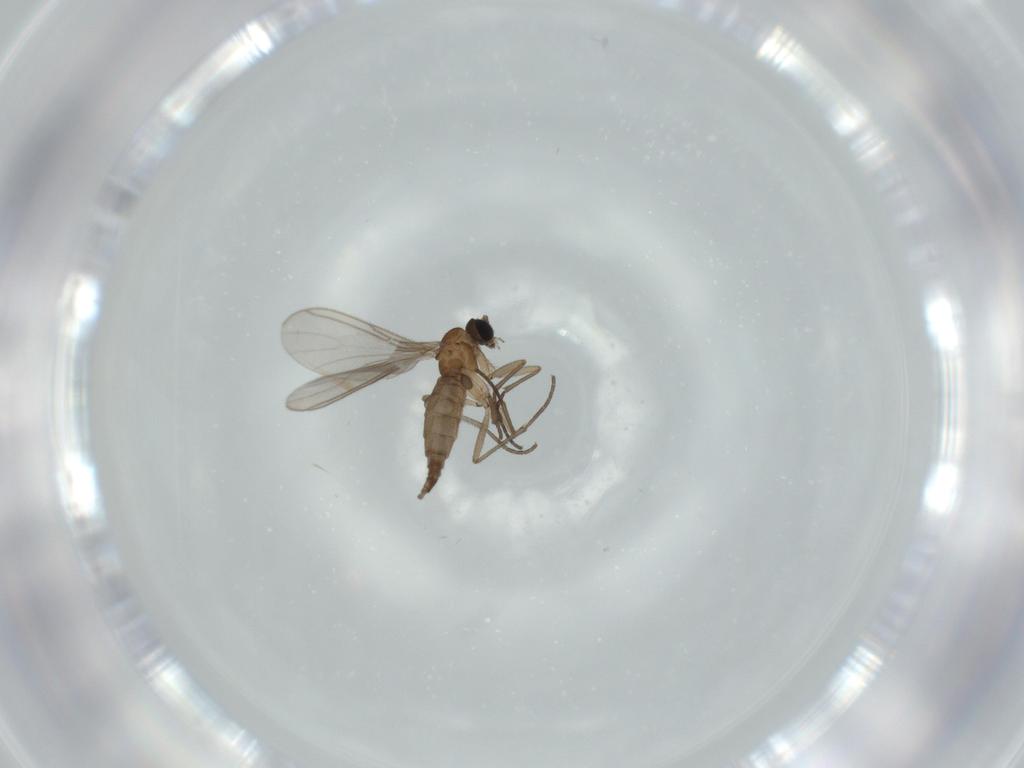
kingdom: Animalia
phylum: Arthropoda
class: Insecta
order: Diptera
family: Sciaridae
